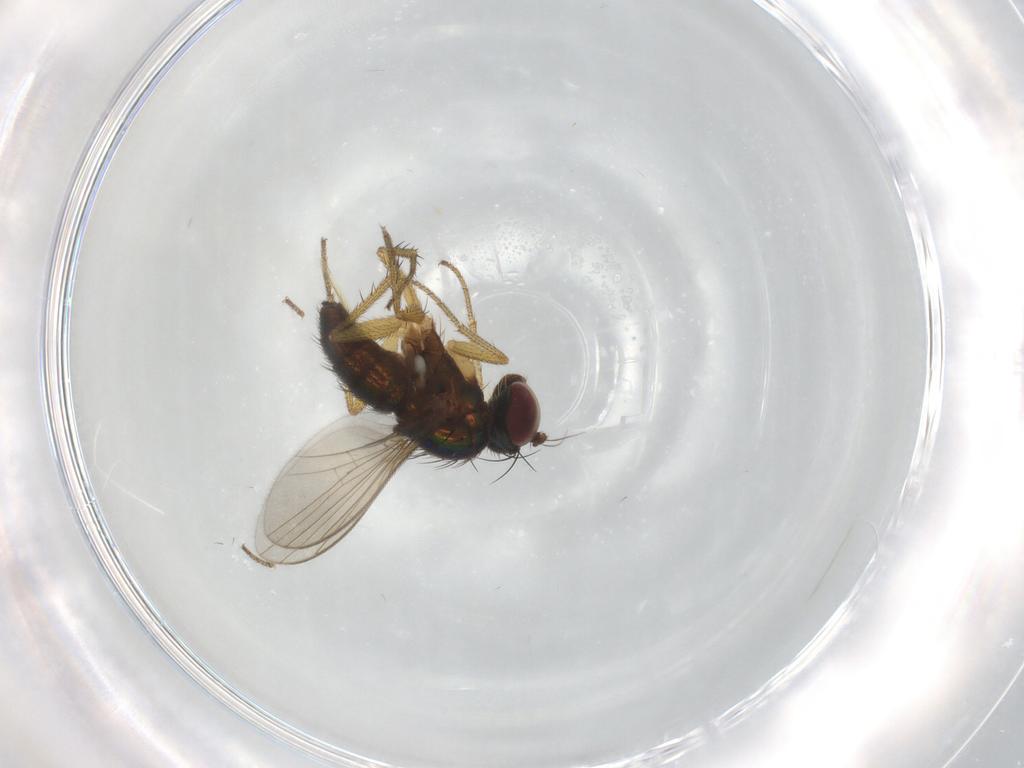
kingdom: Animalia
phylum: Arthropoda
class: Insecta
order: Diptera
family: Chironomidae
